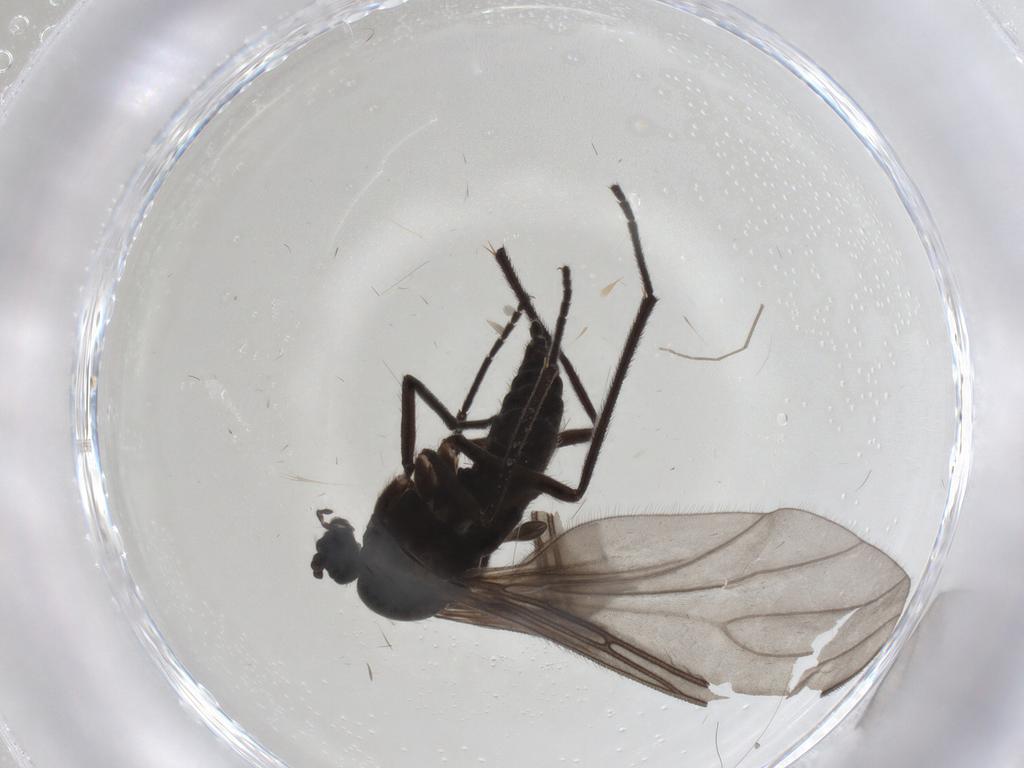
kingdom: Animalia
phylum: Arthropoda
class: Insecta
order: Diptera
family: Sciaridae
